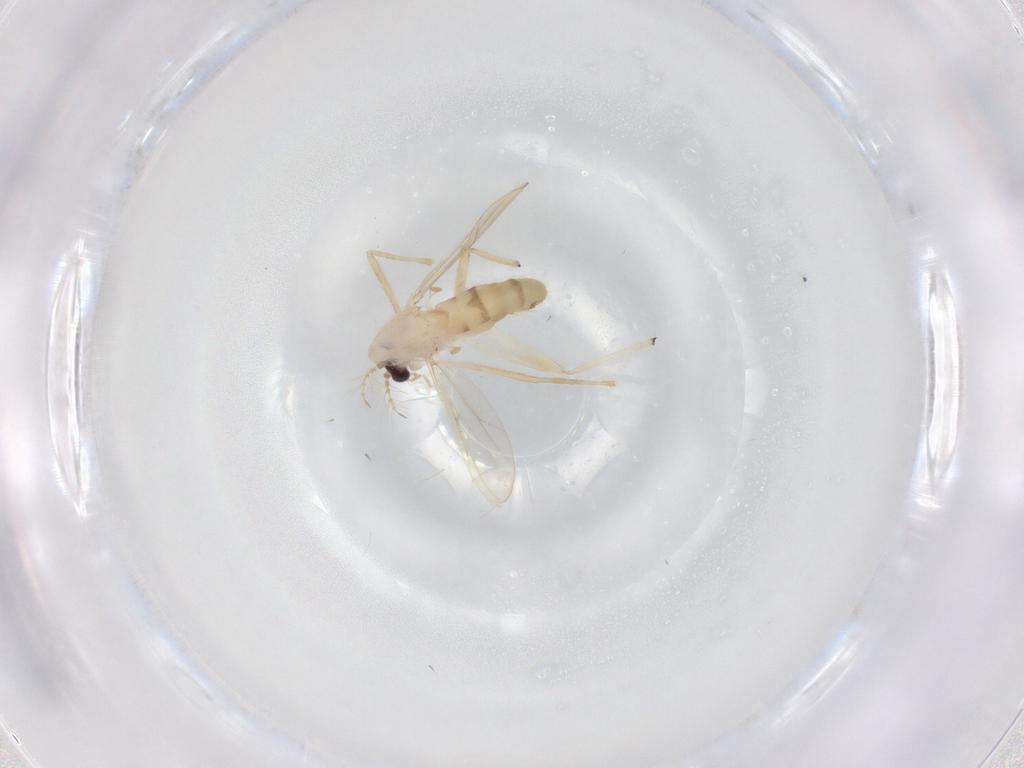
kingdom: Animalia
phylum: Arthropoda
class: Insecta
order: Diptera
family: Chironomidae
